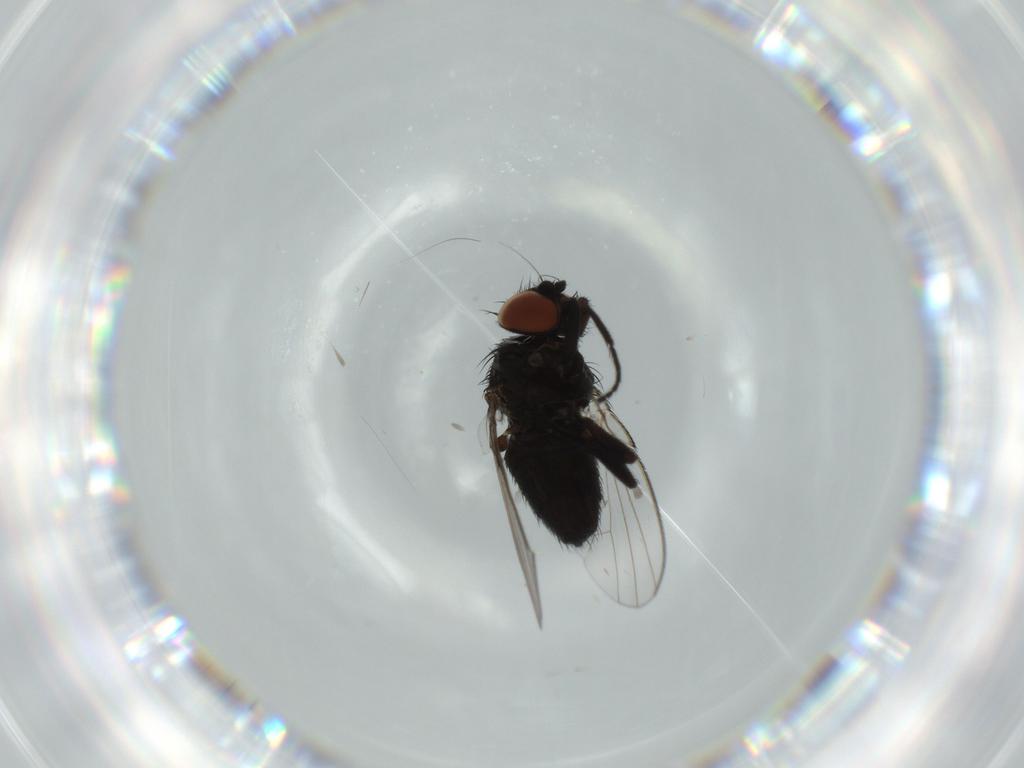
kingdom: Animalia
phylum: Arthropoda
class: Insecta
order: Diptera
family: Milichiidae
